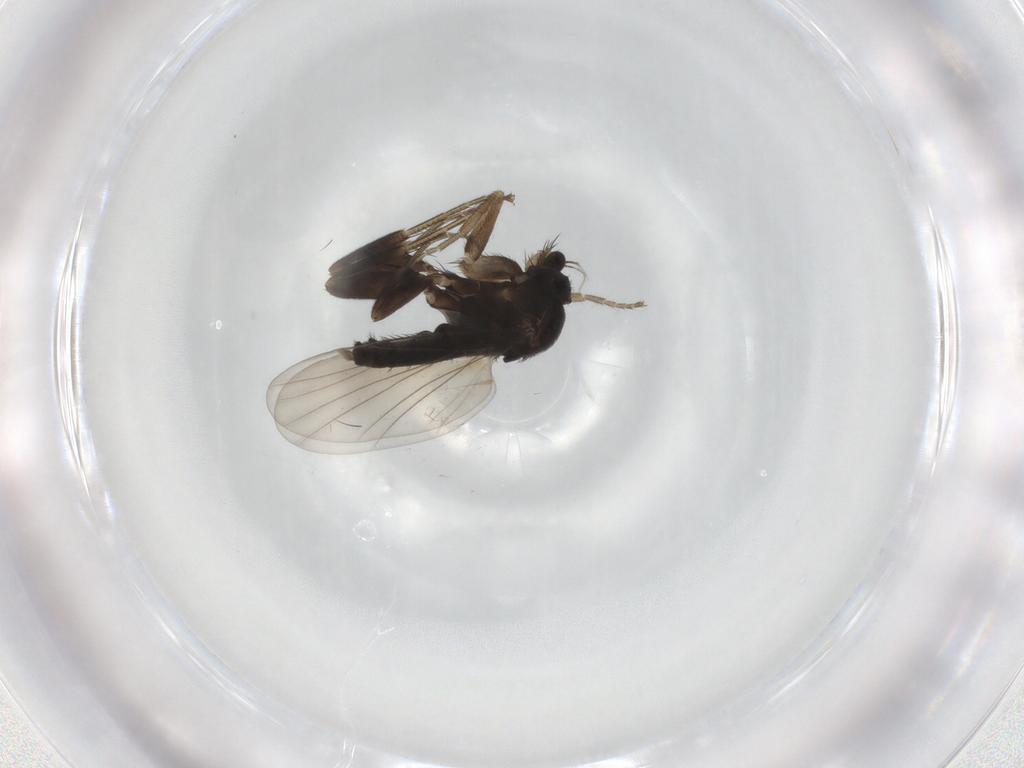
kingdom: Animalia
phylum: Arthropoda
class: Insecta
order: Diptera
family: Phoridae
